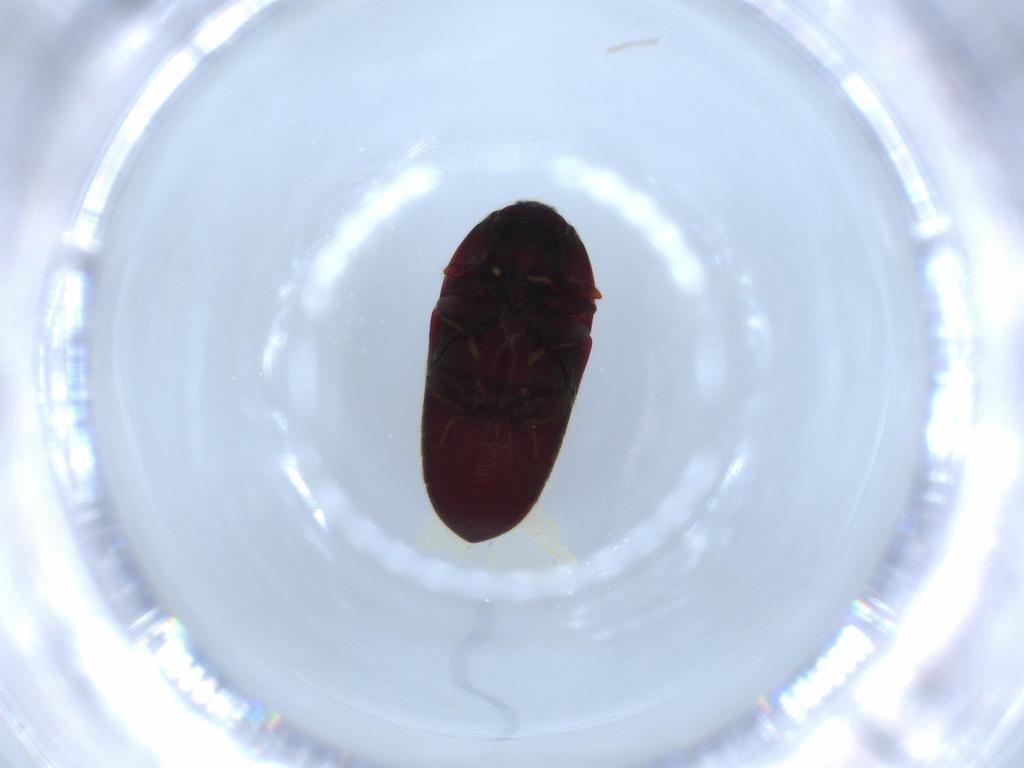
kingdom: Animalia
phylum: Arthropoda
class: Insecta
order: Coleoptera
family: Throscidae
